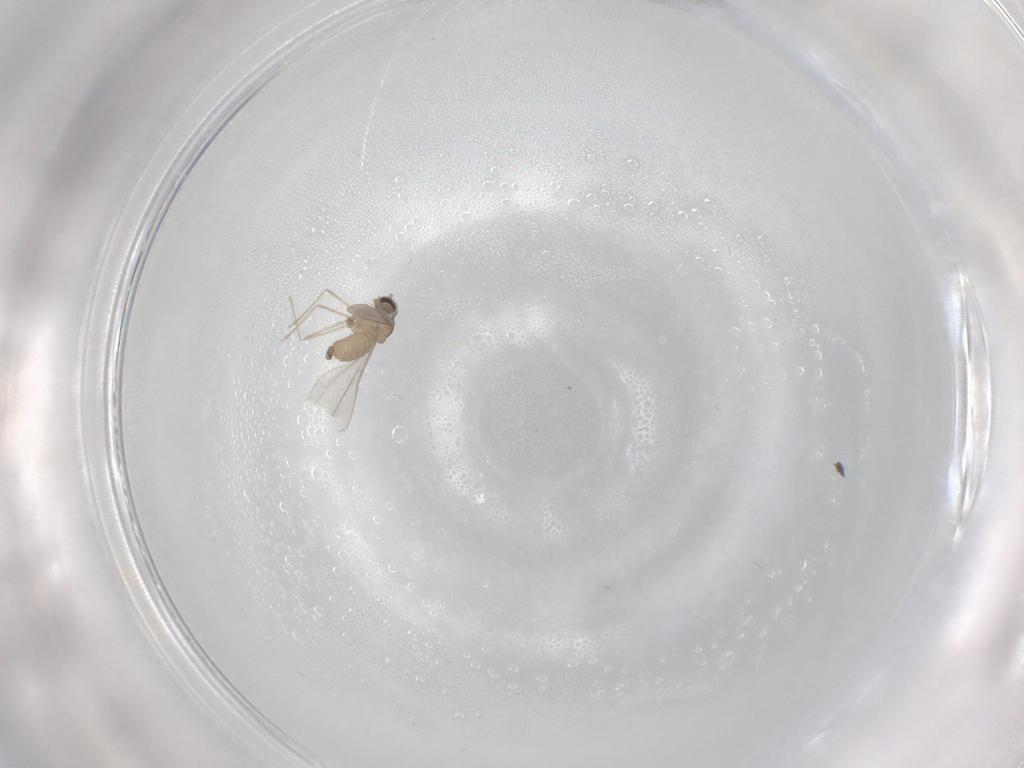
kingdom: Animalia
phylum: Arthropoda
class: Insecta
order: Diptera
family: Cecidomyiidae
